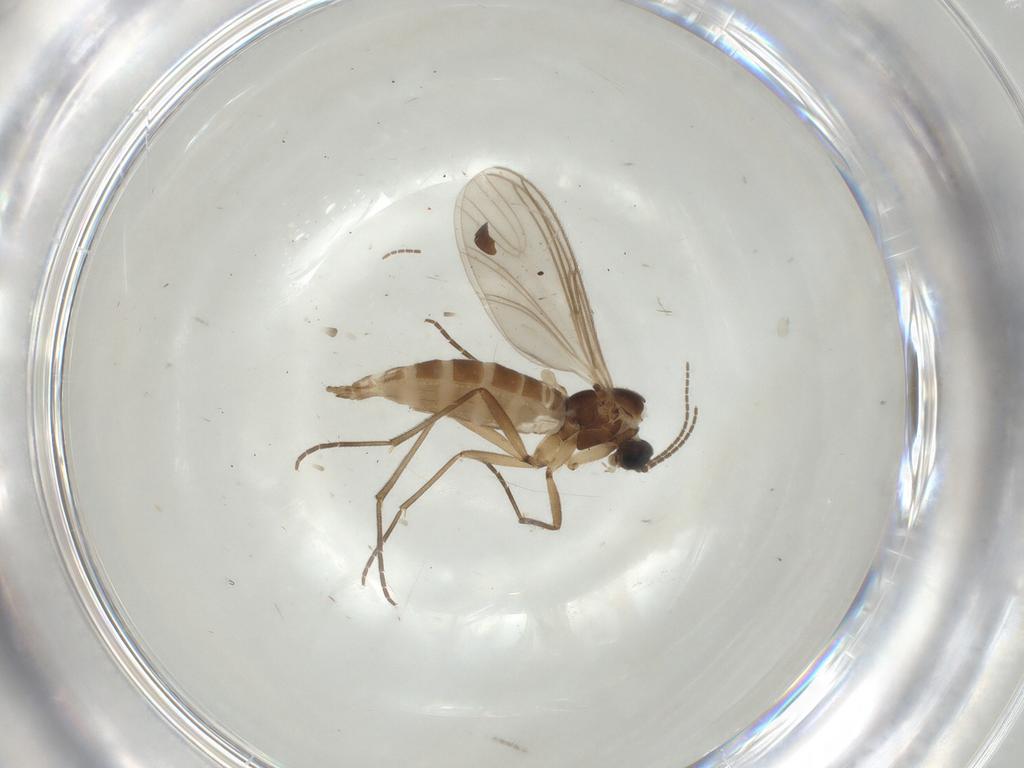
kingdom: Animalia
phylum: Arthropoda
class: Insecta
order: Diptera
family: Sciaridae
